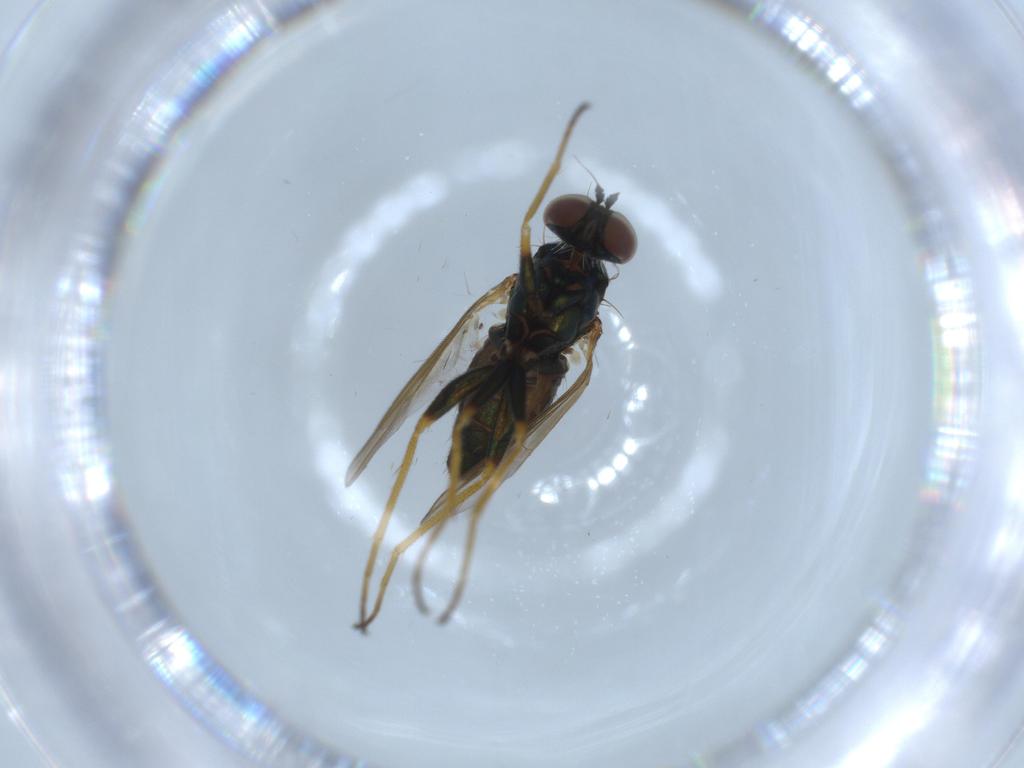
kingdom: Animalia
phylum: Arthropoda
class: Insecta
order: Diptera
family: Dolichopodidae
